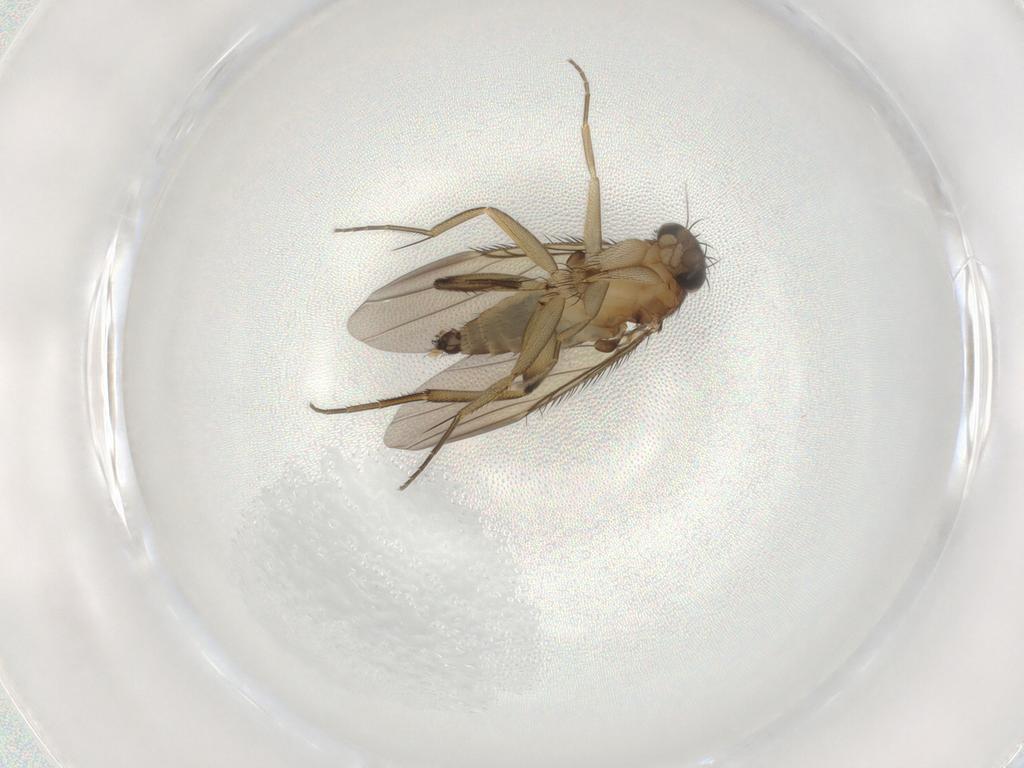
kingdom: Animalia
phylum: Arthropoda
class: Insecta
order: Diptera
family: Phoridae
